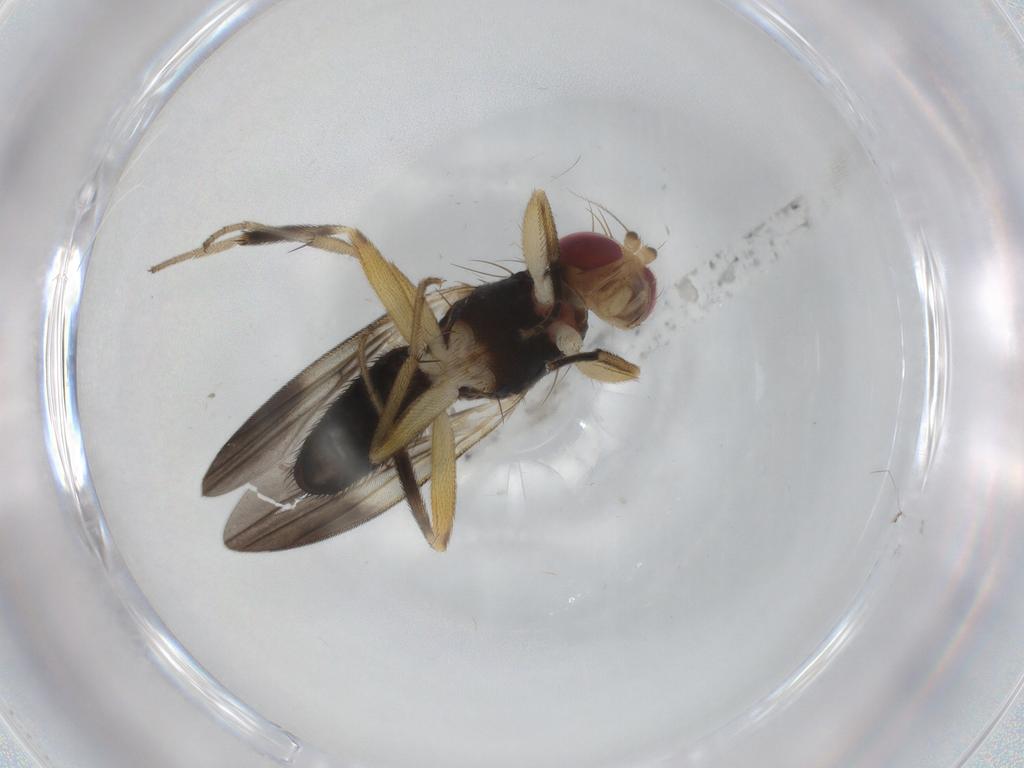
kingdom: Animalia
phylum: Arthropoda
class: Insecta
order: Diptera
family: Clusiidae
